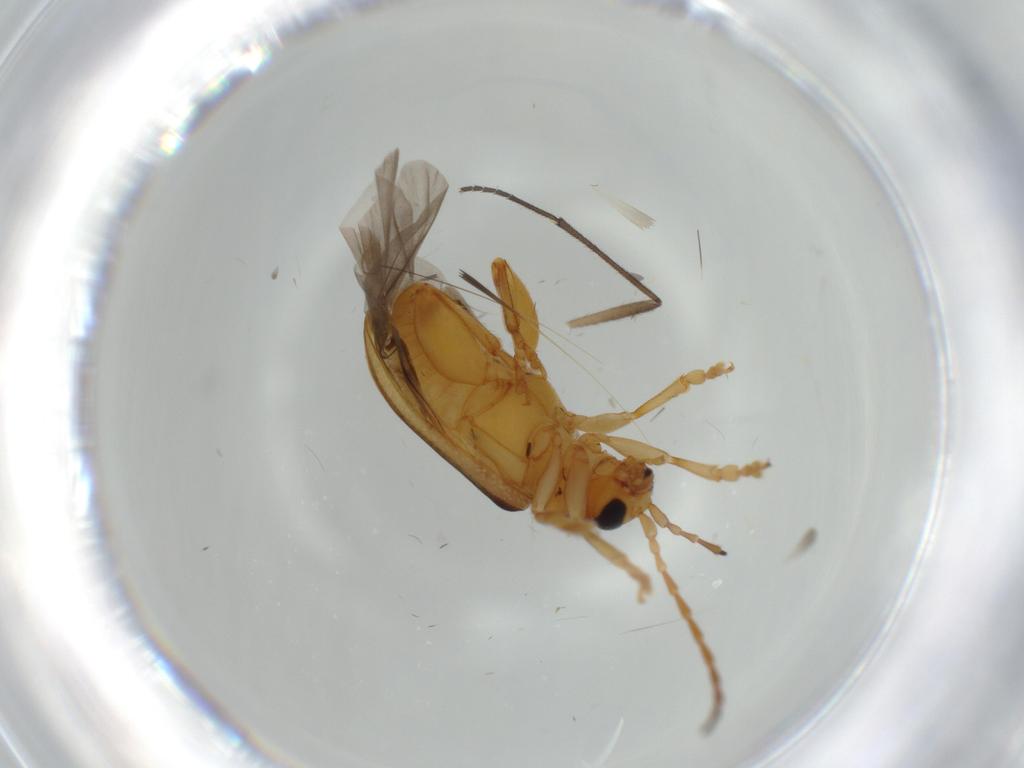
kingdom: Animalia
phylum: Arthropoda
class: Insecta
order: Coleoptera
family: Chrysomelidae
